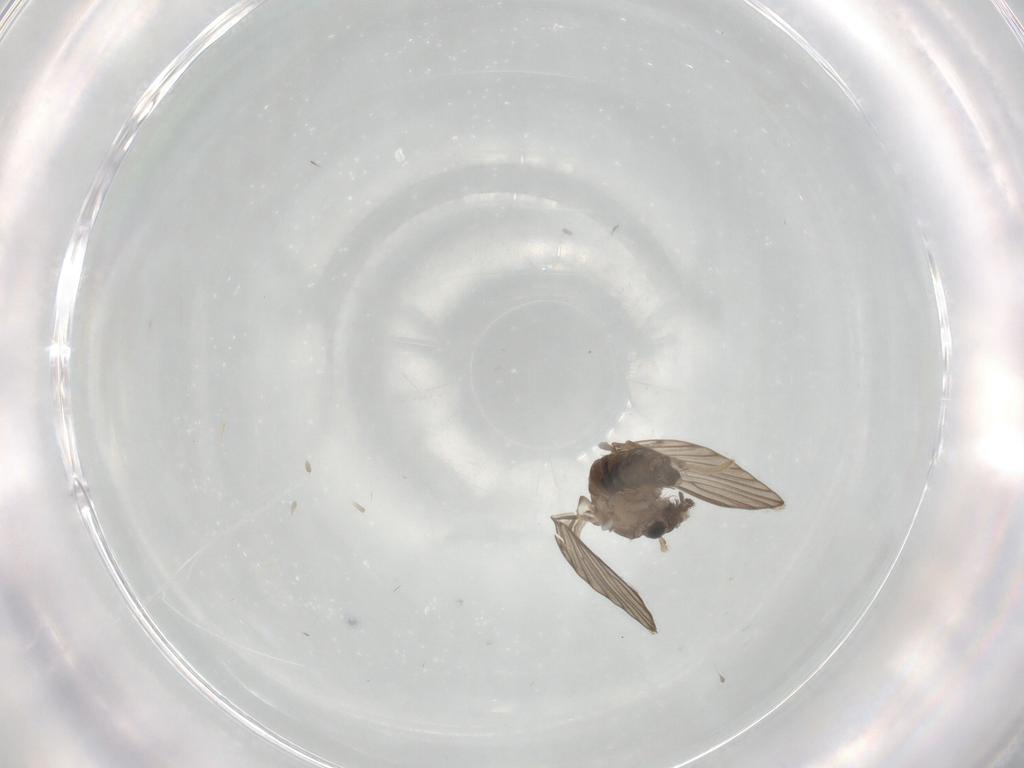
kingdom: Animalia
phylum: Arthropoda
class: Insecta
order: Diptera
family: Psychodidae
